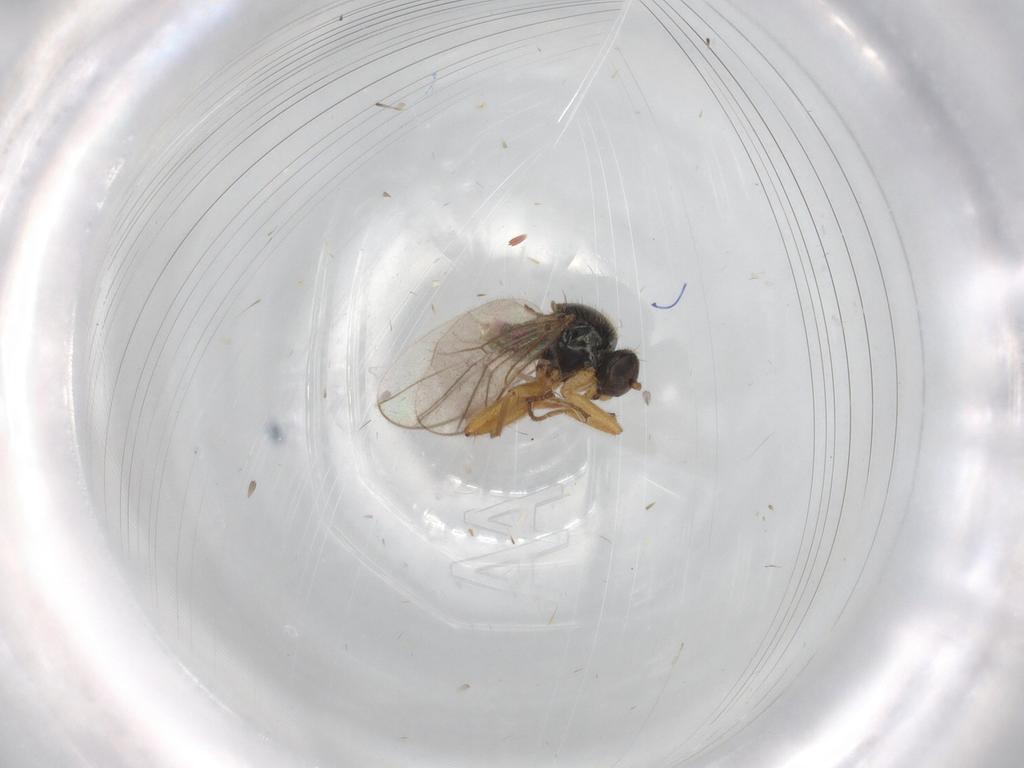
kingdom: Animalia
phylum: Arthropoda
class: Insecta
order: Diptera
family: Hybotidae
